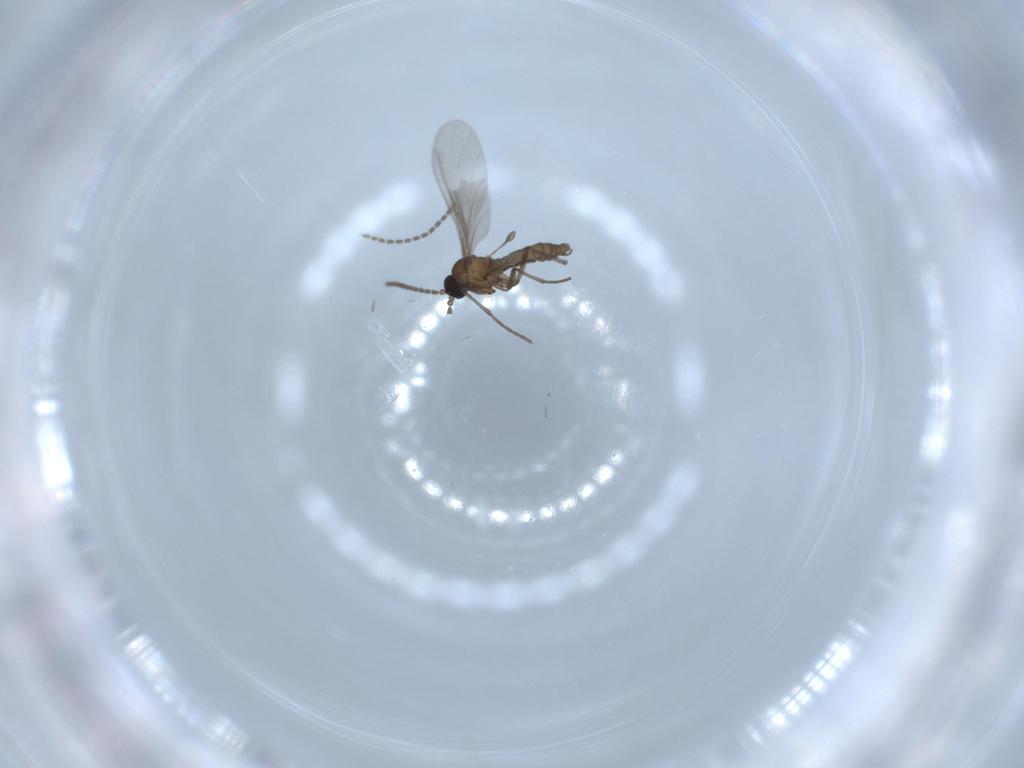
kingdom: Animalia
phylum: Arthropoda
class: Insecta
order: Diptera
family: Sciaridae
